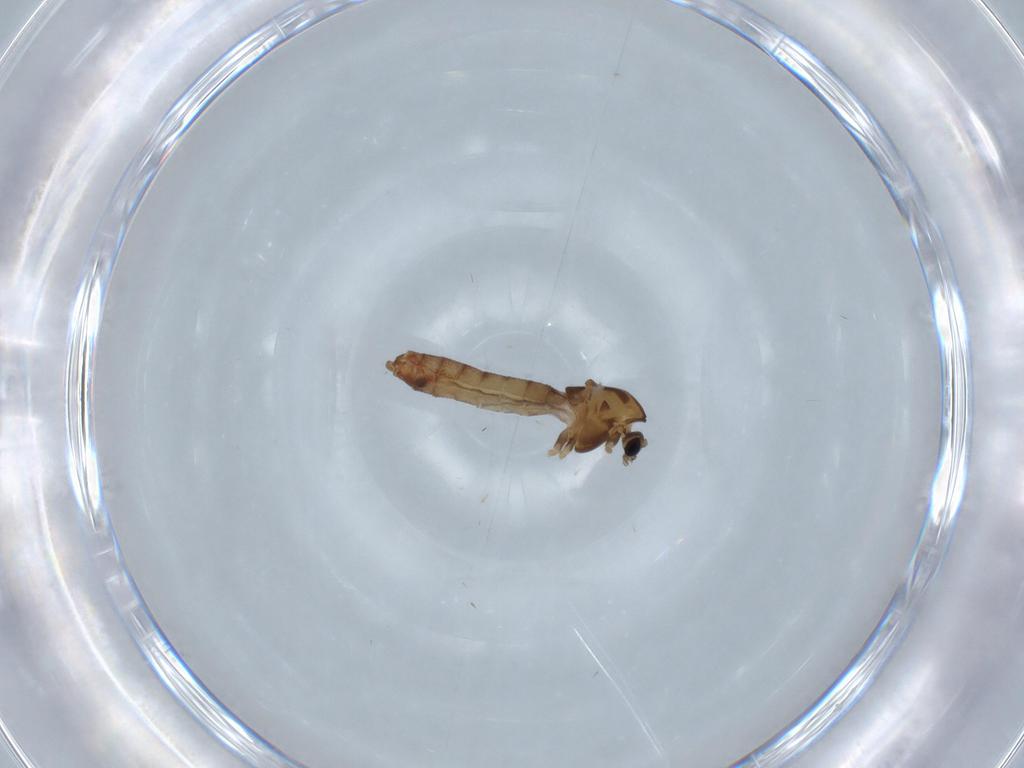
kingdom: Animalia
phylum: Arthropoda
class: Insecta
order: Diptera
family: Chironomidae
